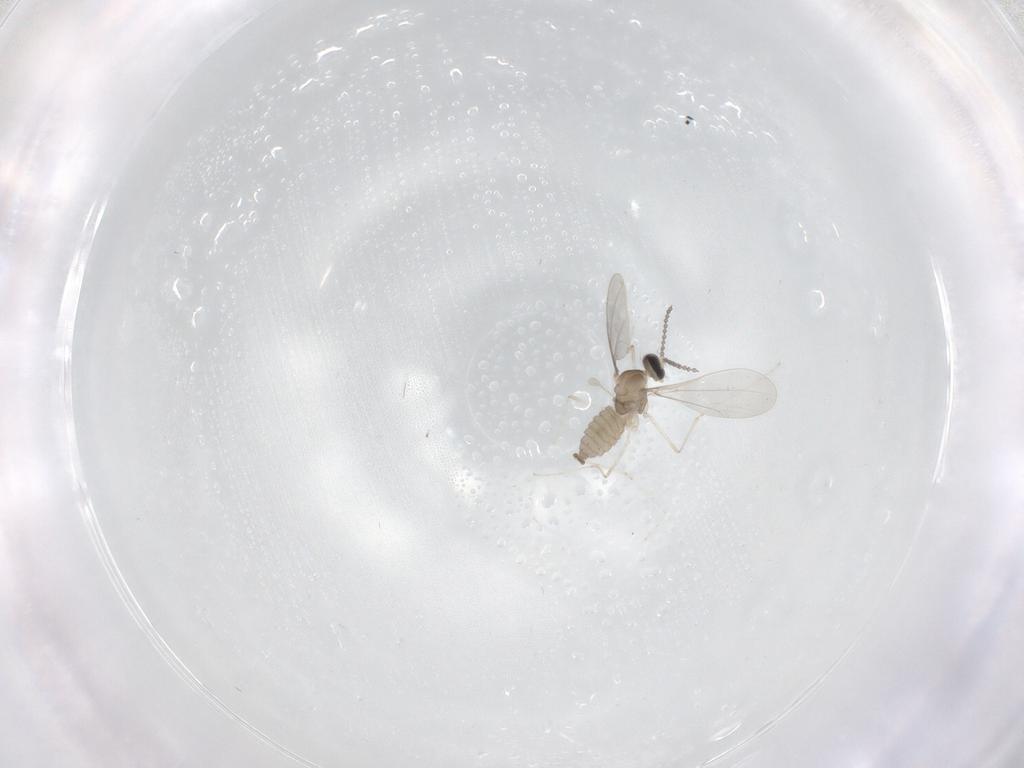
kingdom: Animalia
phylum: Arthropoda
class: Insecta
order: Diptera
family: Cecidomyiidae
